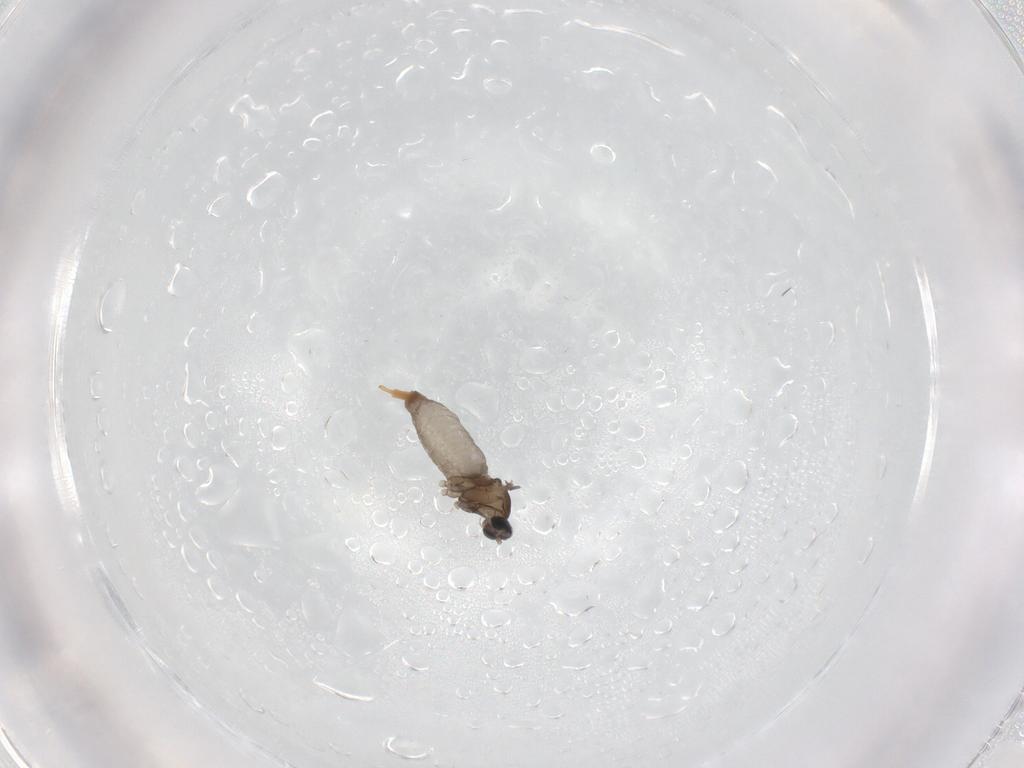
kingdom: Animalia
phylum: Arthropoda
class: Insecta
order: Diptera
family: Cecidomyiidae
